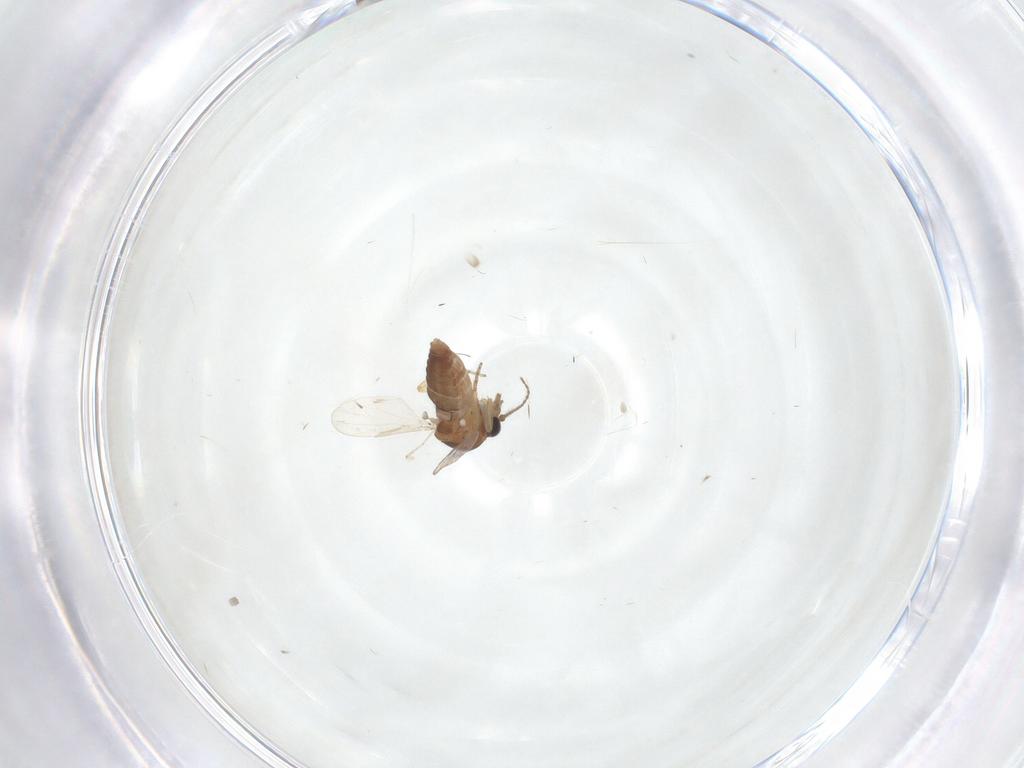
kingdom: Animalia
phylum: Arthropoda
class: Insecta
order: Diptera
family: Ceratopogonidae
